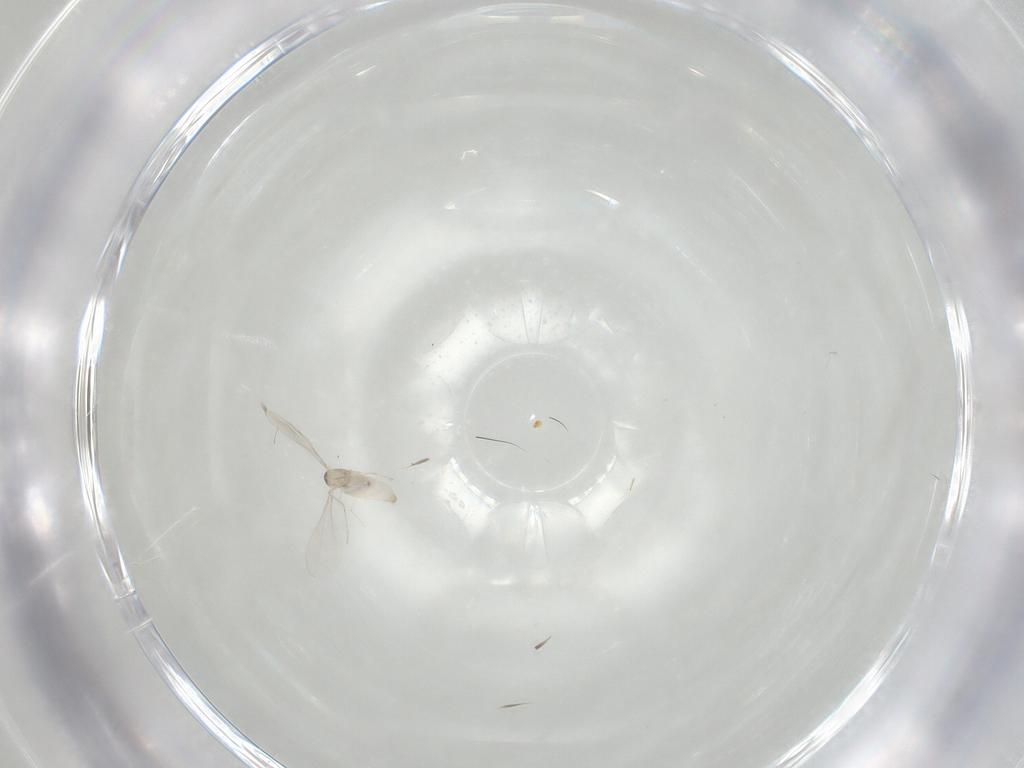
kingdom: Animalia
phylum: Arthropoda
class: Insecta
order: Diptera
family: Cecidomyiidae
